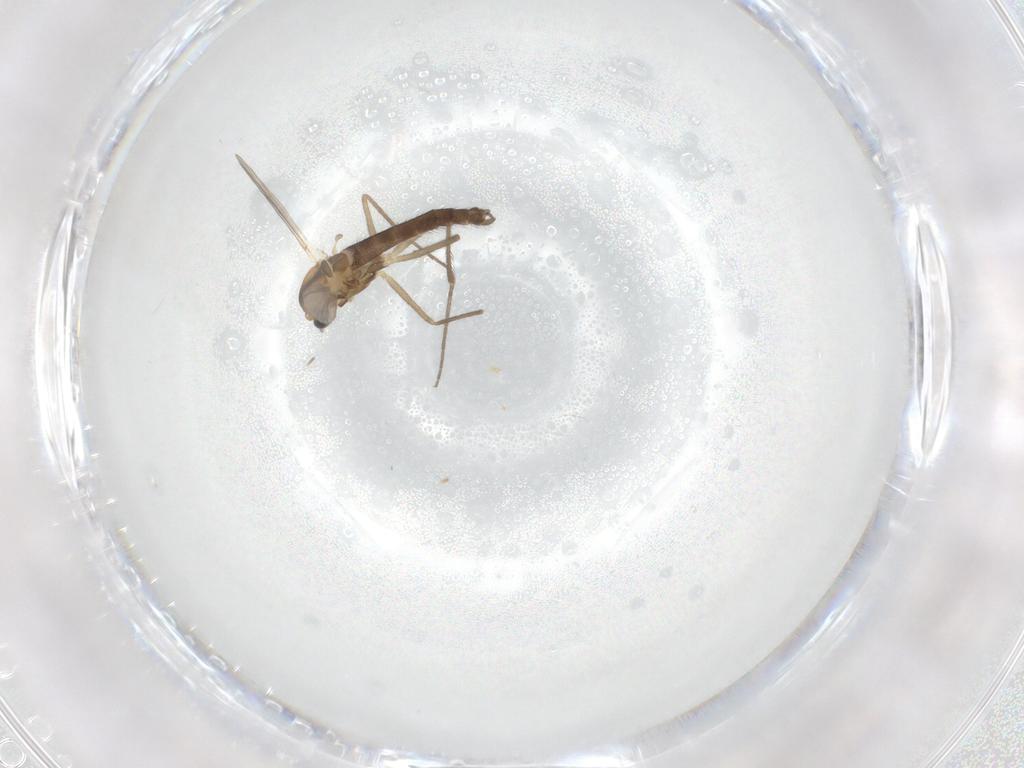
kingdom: Animalia
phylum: Arthropoda
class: Insecta
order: Diptera
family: Chironomidae
